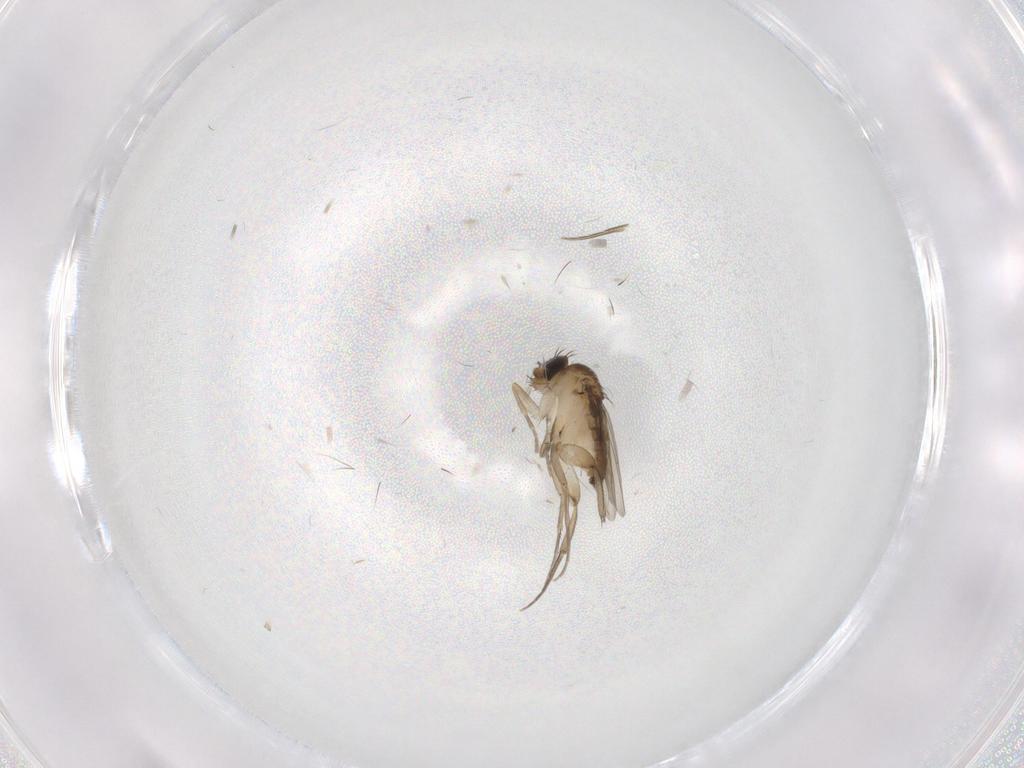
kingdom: Animalia
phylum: Arthropoda
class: Insecta
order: Diptera
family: Phoridae
